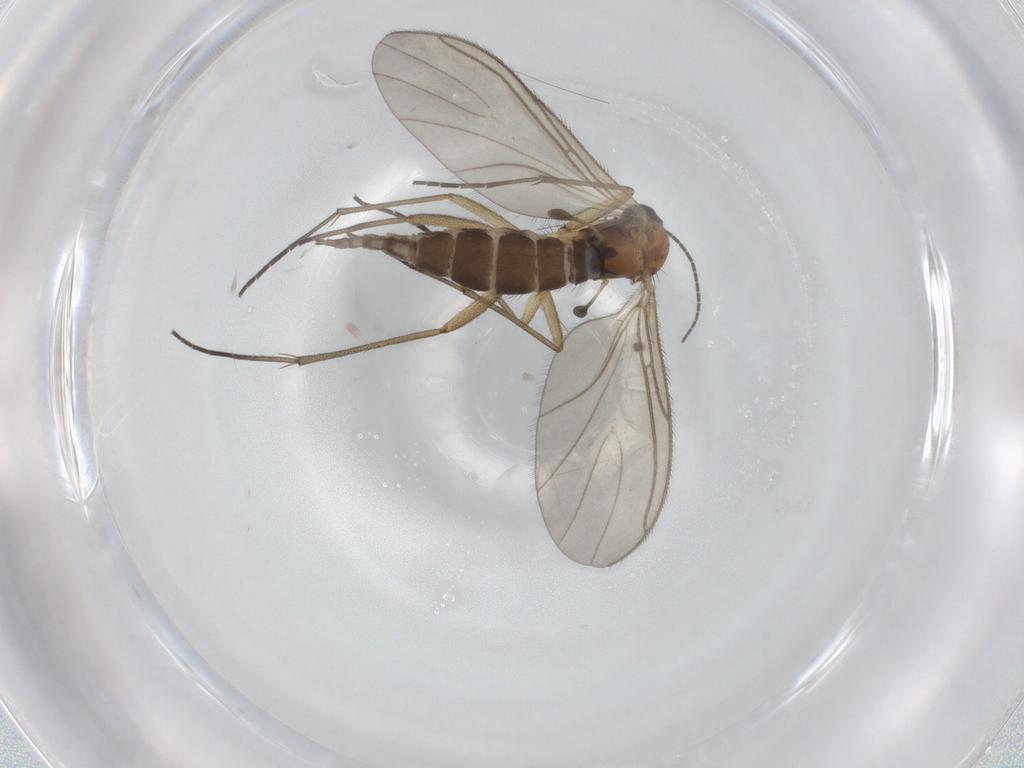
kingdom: Animalia
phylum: Arthropoda
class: Insecta
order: Diptera
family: Sciaridae
